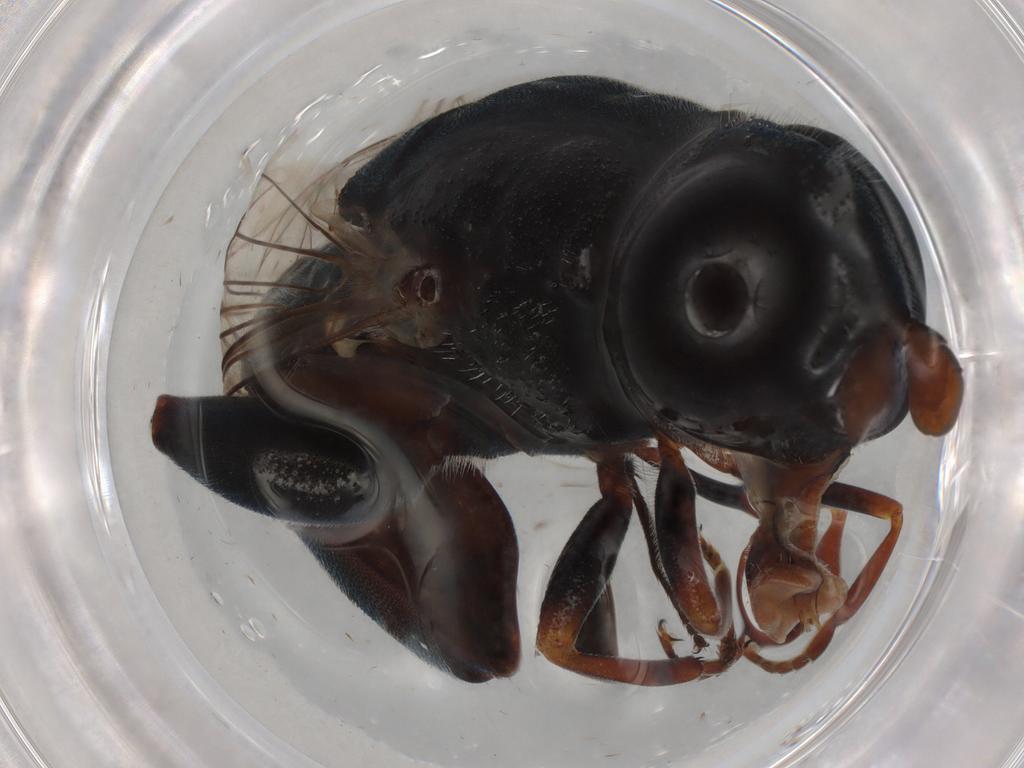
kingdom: Animalia
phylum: Arthropoda
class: Insecta
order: Diptera
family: Syrphidae
